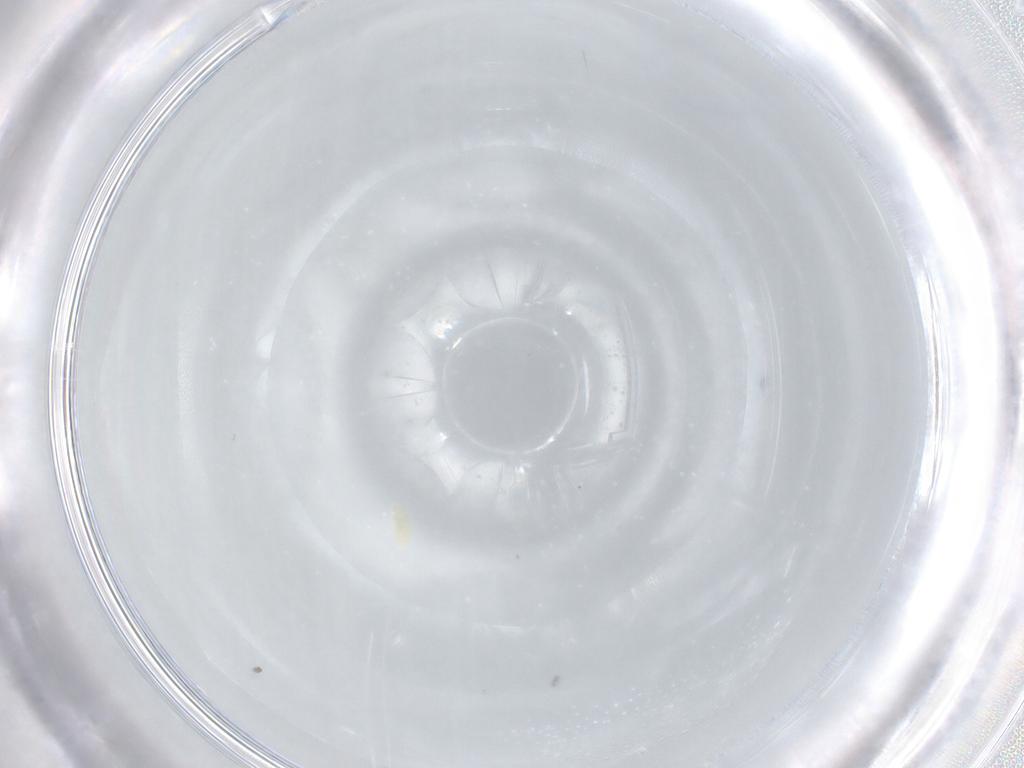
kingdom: Animalia
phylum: Arthropoda
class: Arachnida
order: Trombidiformes
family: Eupodidae
